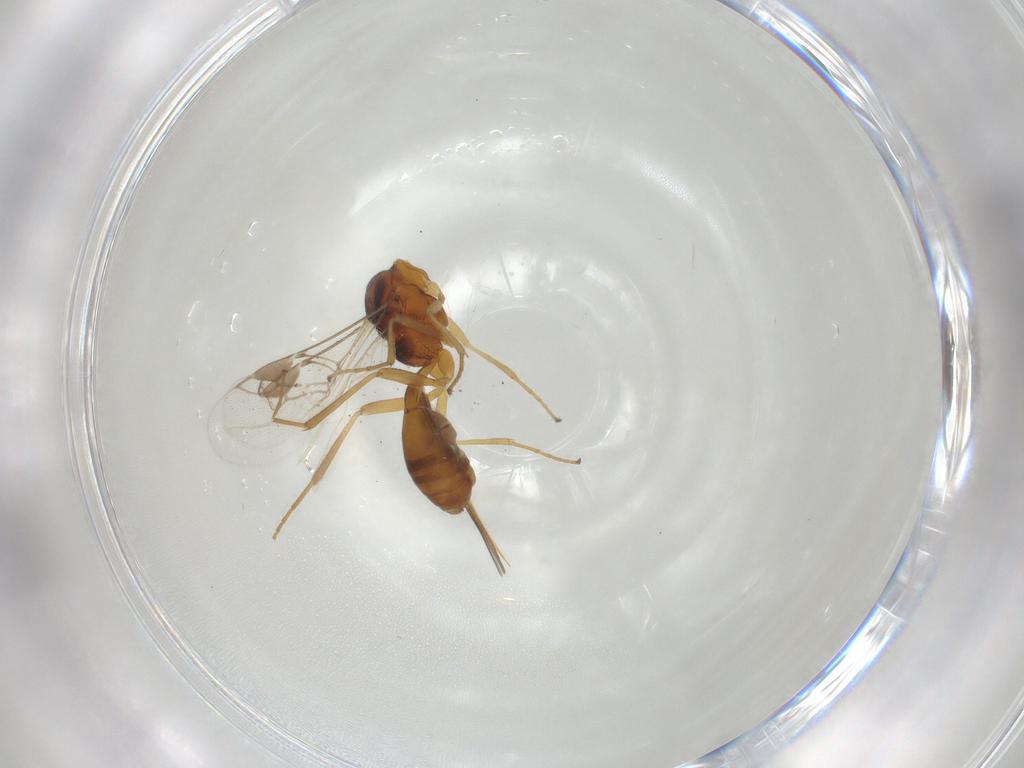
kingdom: Animalia
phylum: Arthropoda
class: Insecta
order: Hymenoptera
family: Braconidae
